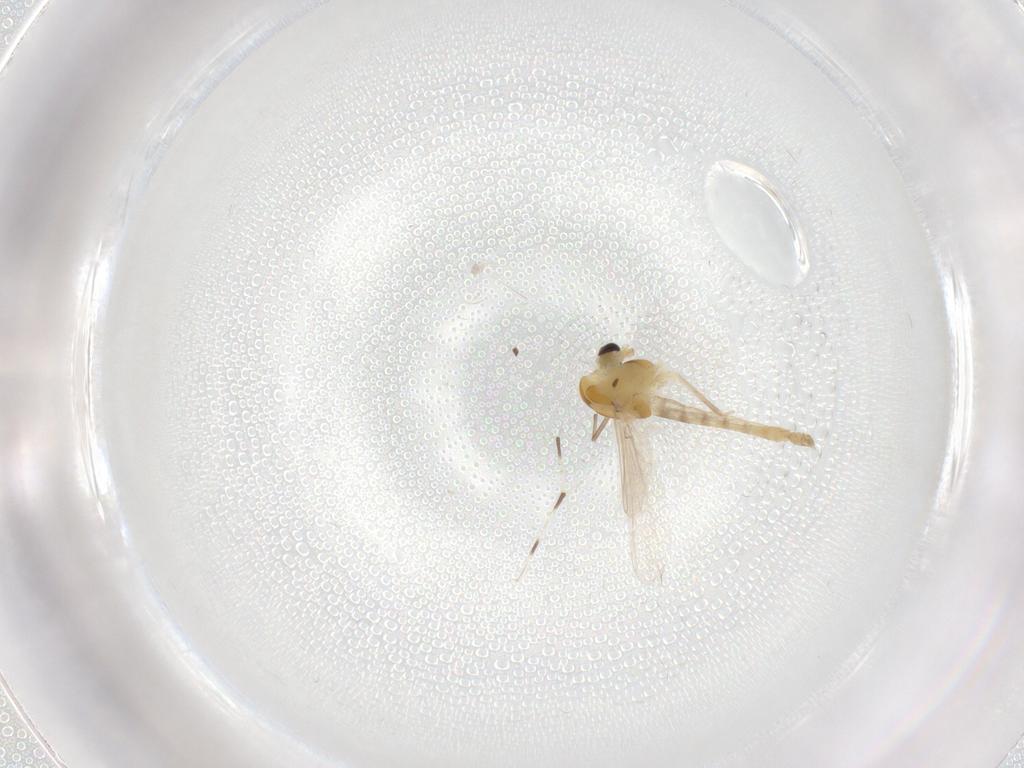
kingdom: Animalia
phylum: Arthropoda
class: Insecta
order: Diptera
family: Chironomidae
